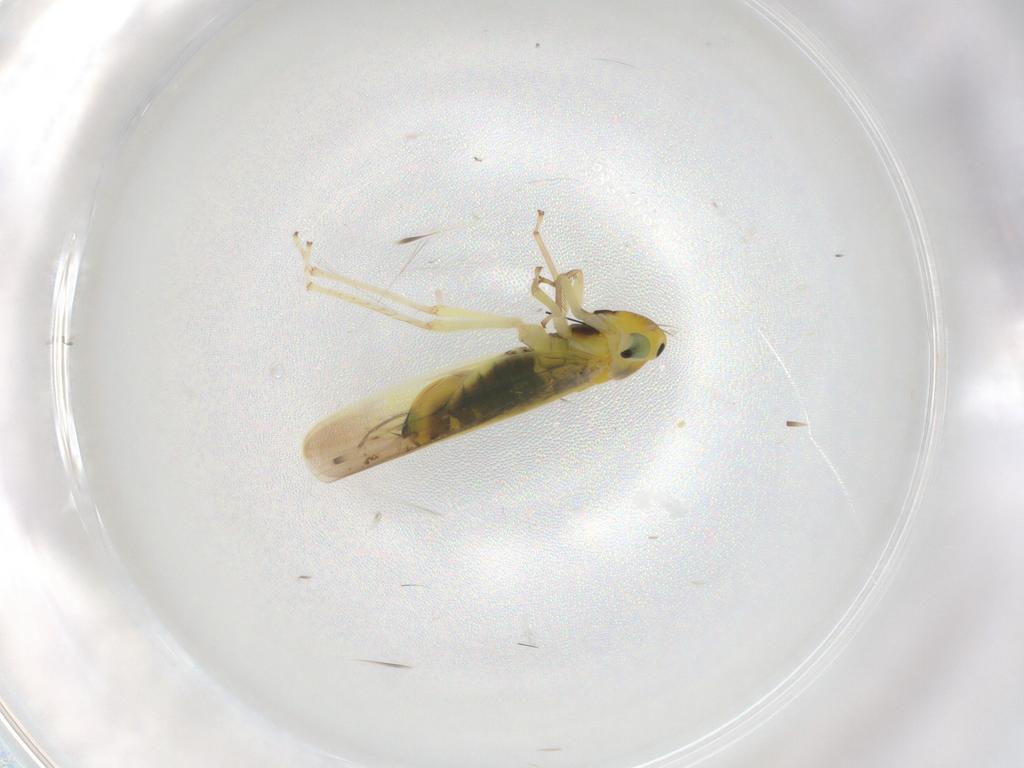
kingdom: Animalia
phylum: Arthropoda
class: Insecta
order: Hemiptera
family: Cicadellidae
